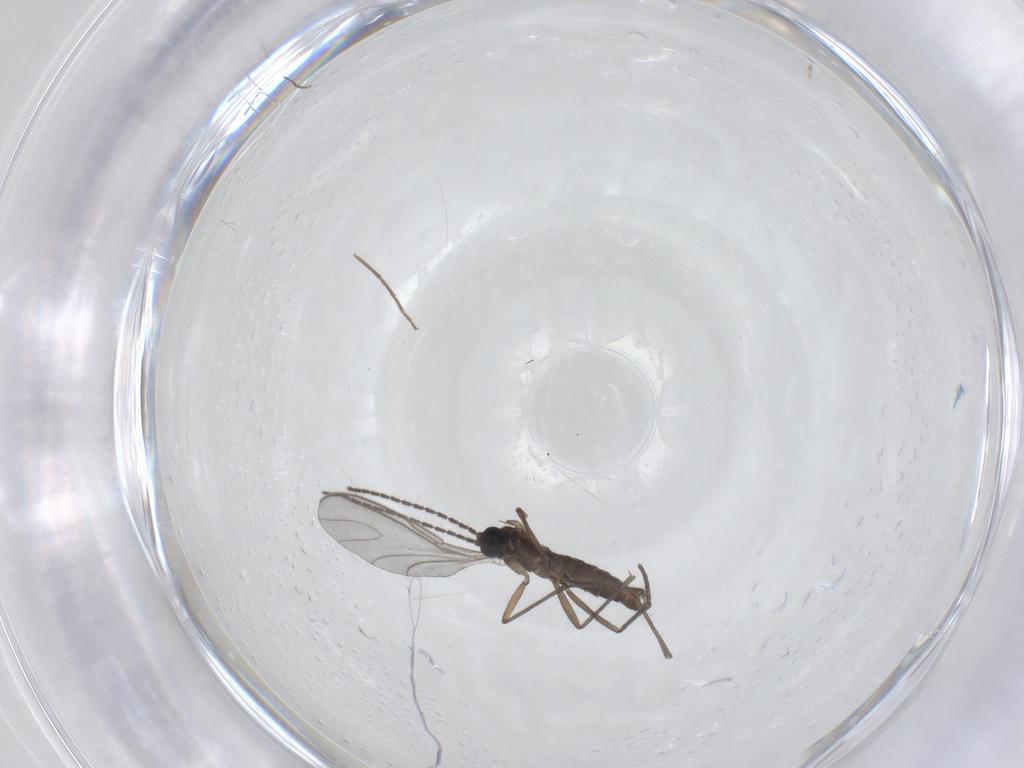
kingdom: Animalia
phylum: Arthropoda
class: Insecta
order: Diptera
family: Sciaridae
